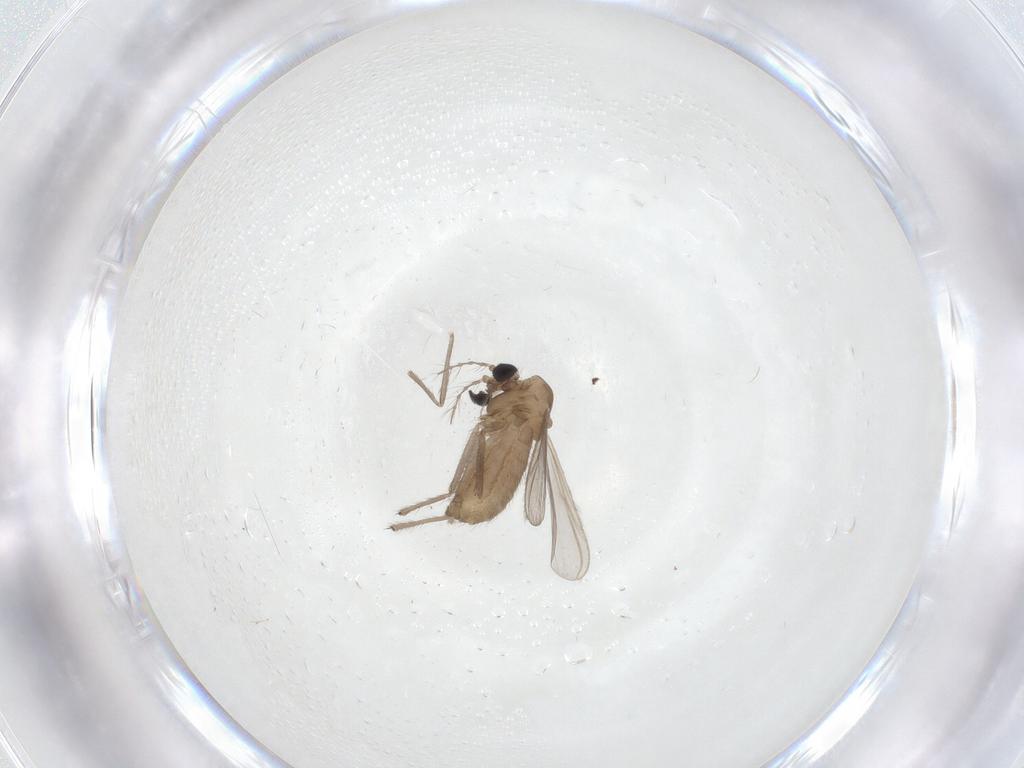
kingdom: Animalia
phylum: Arthropoda
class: Insecta
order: Diptera
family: Chironomidae
